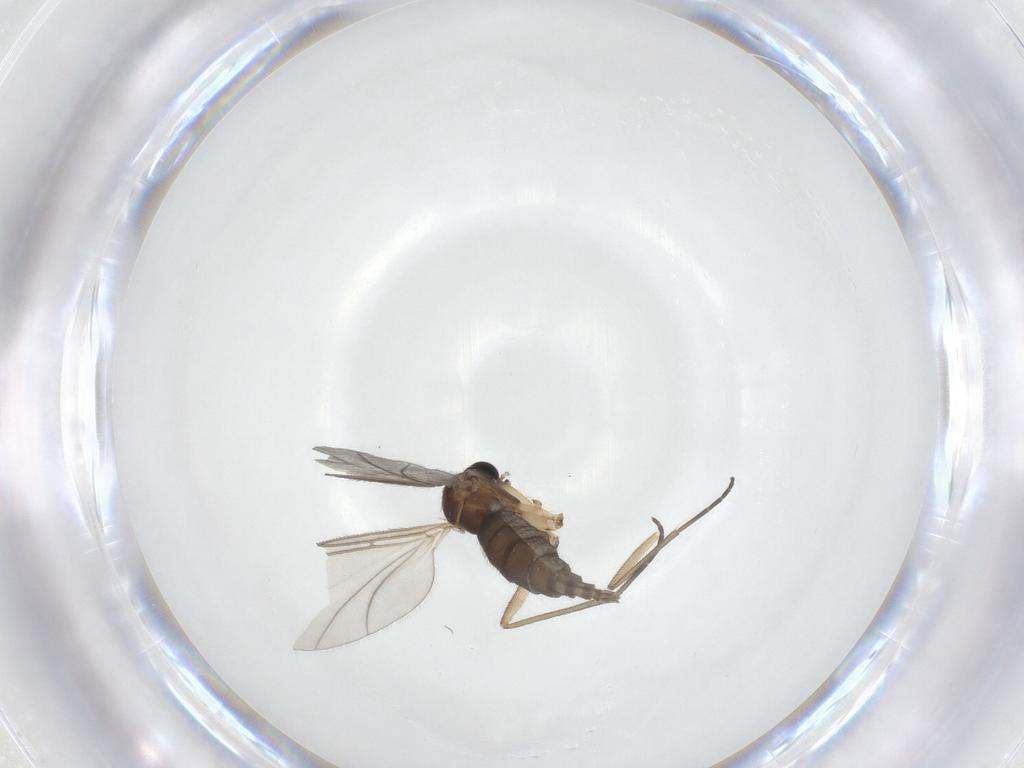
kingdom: Animalia
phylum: Arthropoda
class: Insecta
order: Diptera
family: Sciaridae
